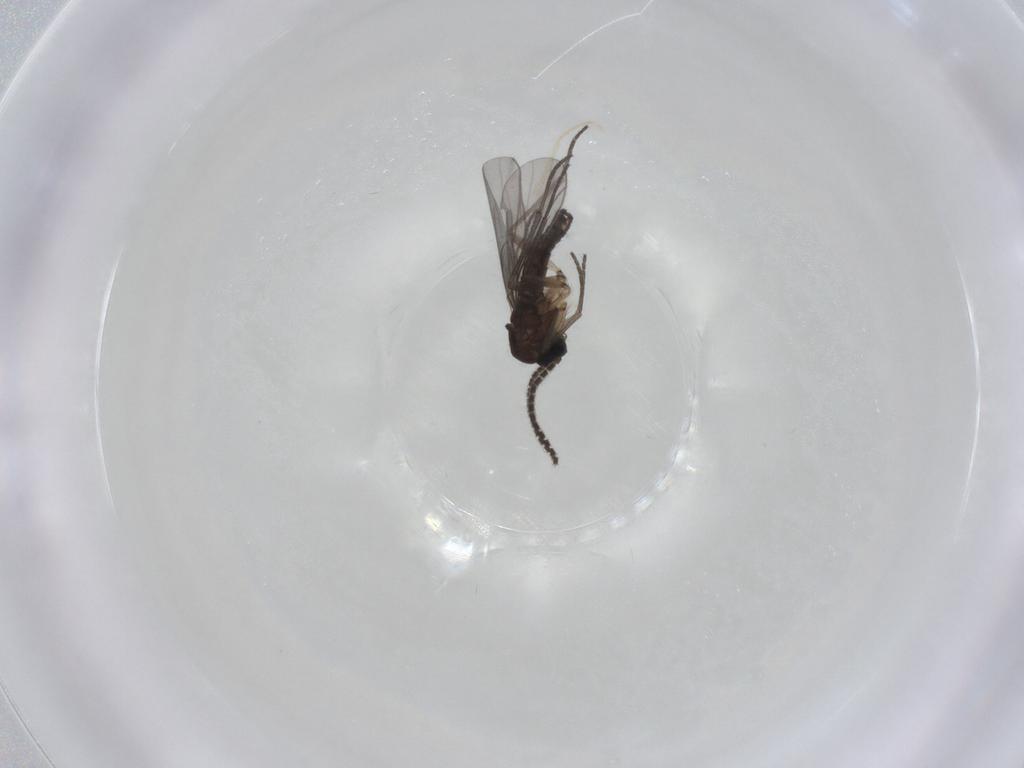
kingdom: Animalia
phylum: Arthropoda
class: Insecta
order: Diptera
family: Sciaridae
